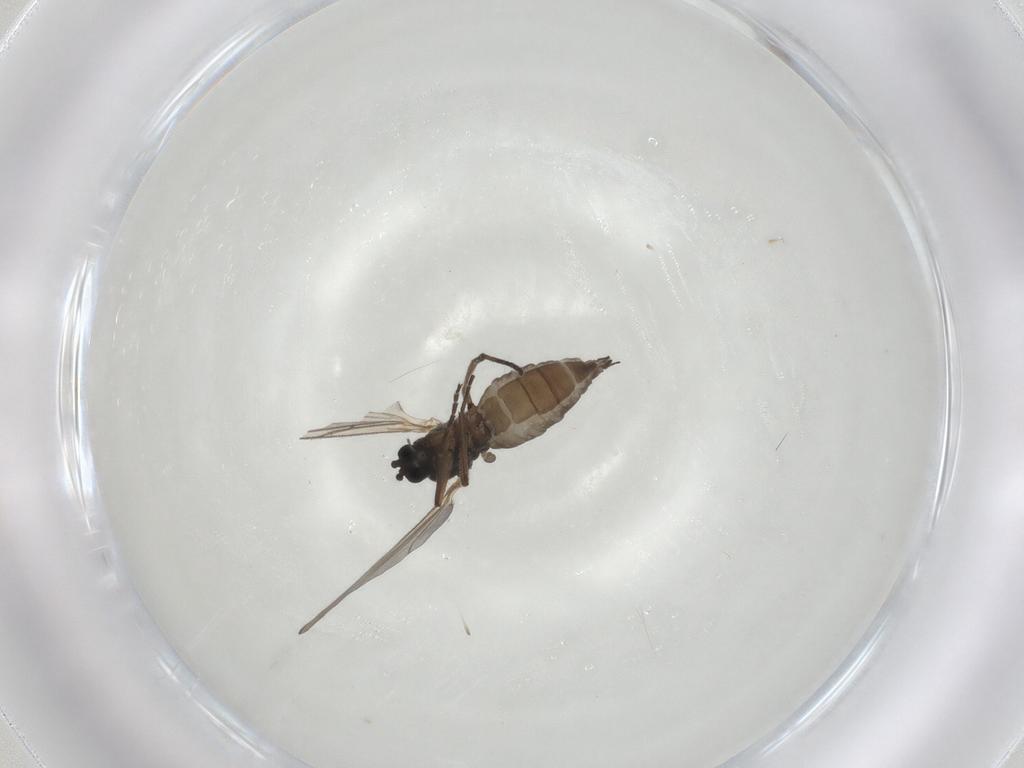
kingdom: Animalia
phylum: Arthropoda
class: Insecta
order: Diptera
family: Sciaridae
